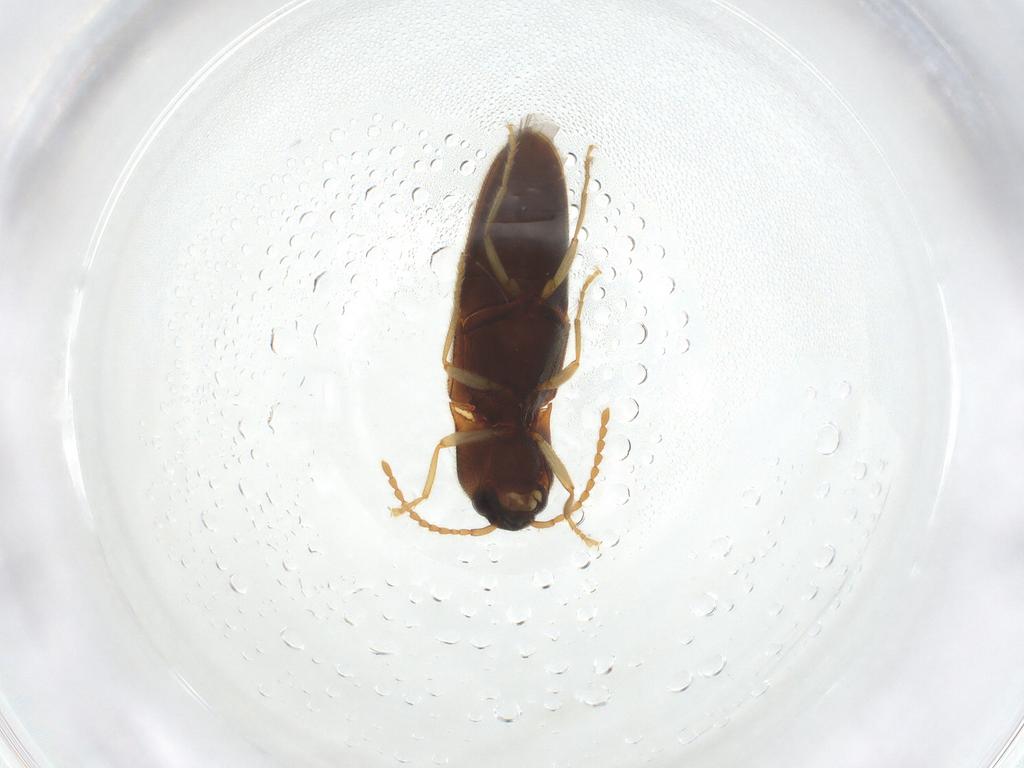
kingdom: Animalia
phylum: Arthropoda
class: Insecta
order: Coleoptera
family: Elateridae
